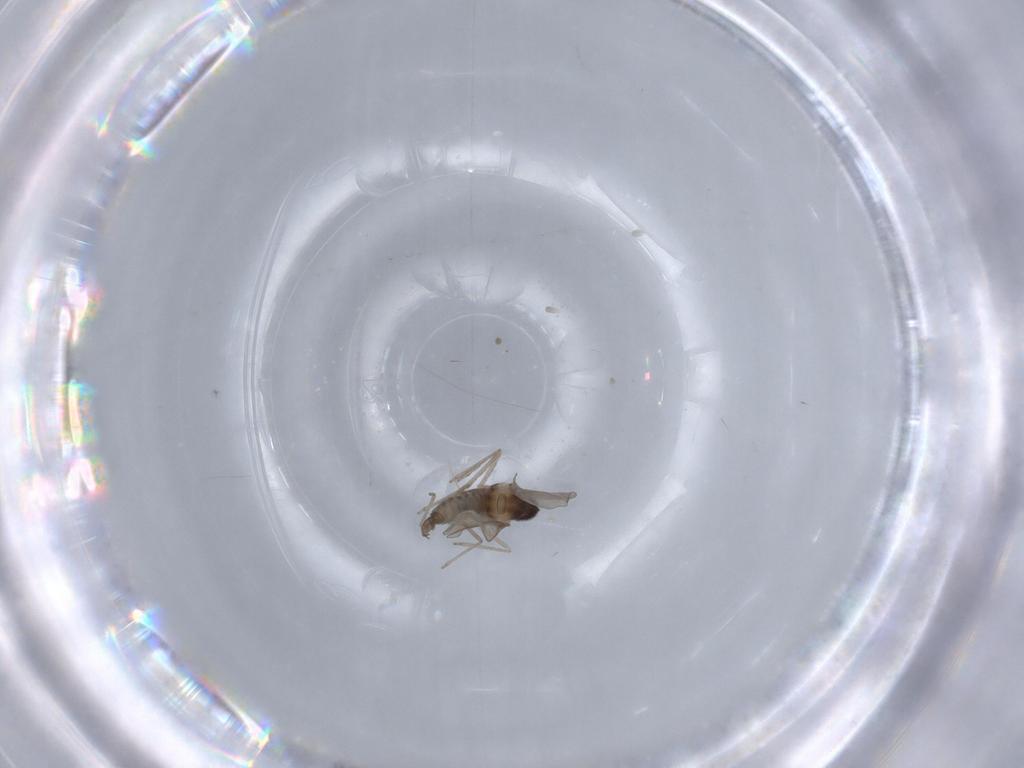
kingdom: Animalia
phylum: Arthropoda
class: Insecta
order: Diptera
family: Cecidomyiidae
